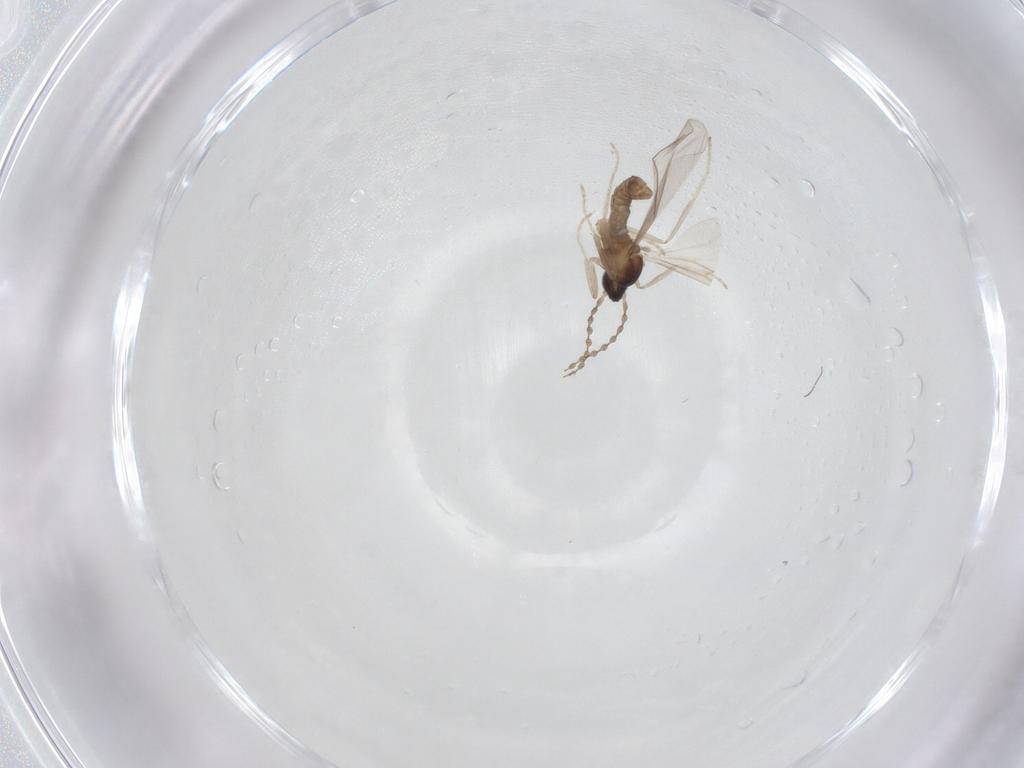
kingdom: Animalia
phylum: Arthropoda
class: Insecta
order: Diptera
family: Cecidomyiidae
